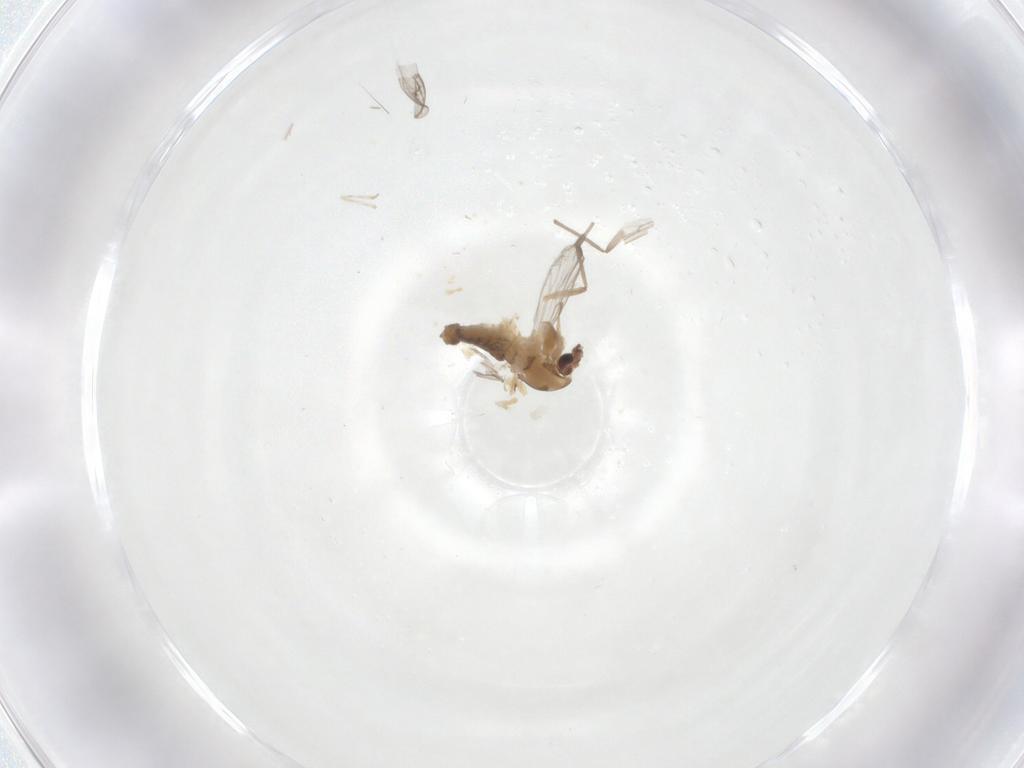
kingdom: Animalia
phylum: Arthropoda
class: Insecta
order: Diptera
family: Chironomidae
